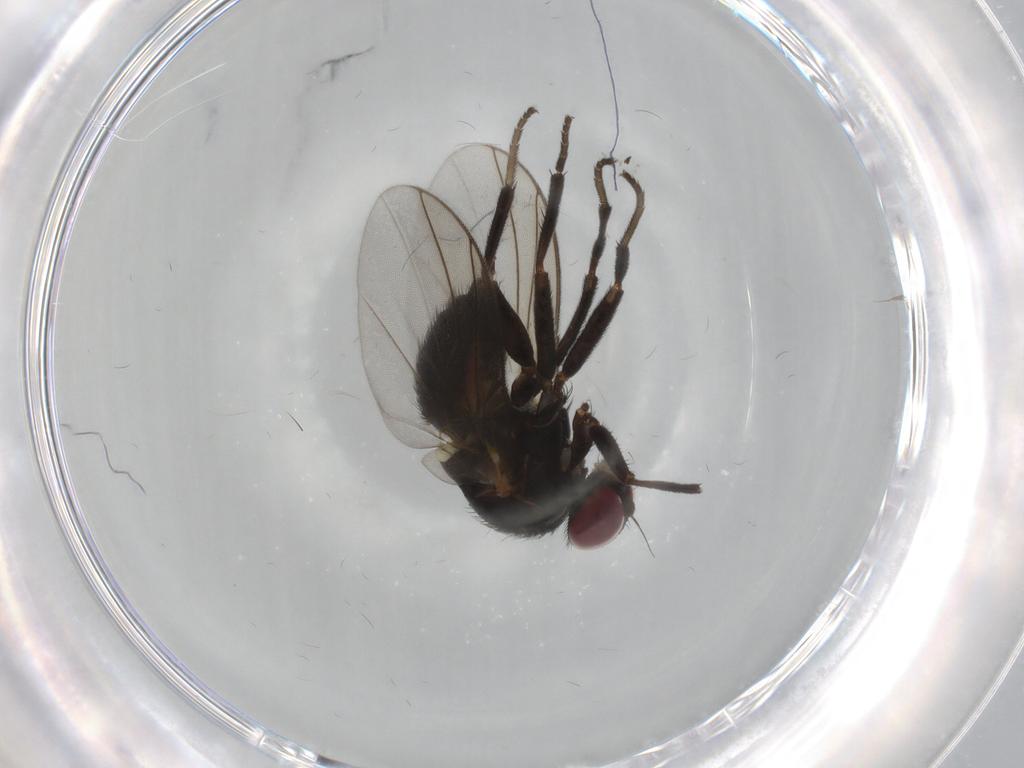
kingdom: Animalia
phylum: Arthropoda
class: Insecta
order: Diptera
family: Agromyzidae
